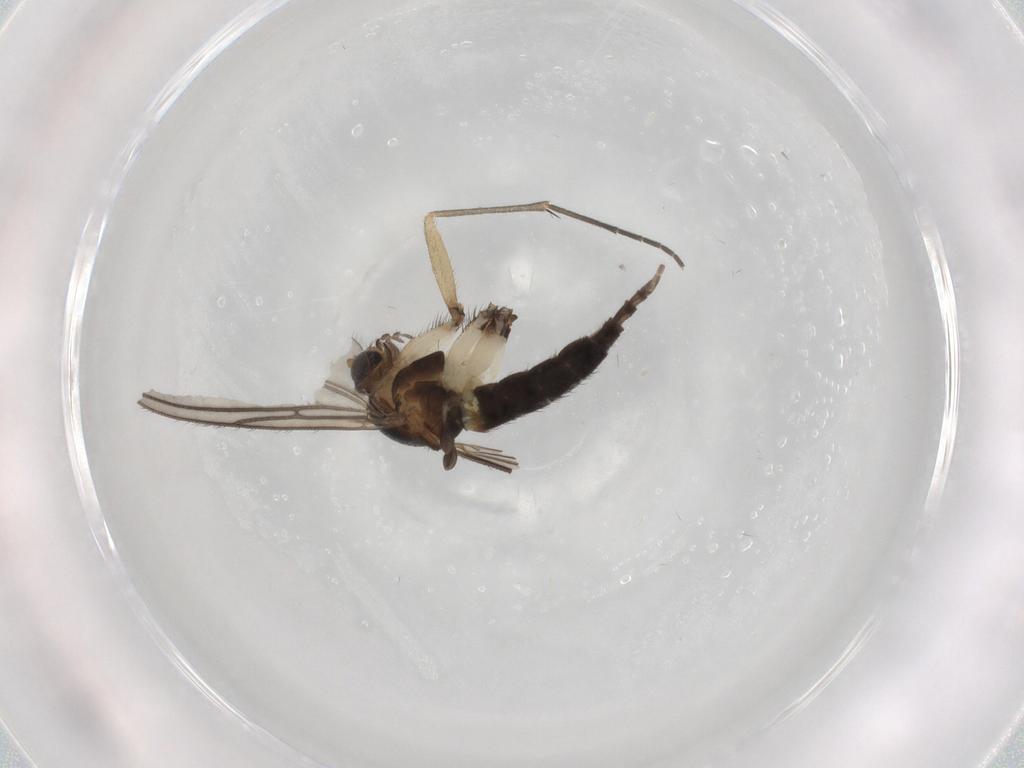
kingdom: Animalia
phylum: Arthropoda
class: Insecta
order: Diptera
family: Sciaridae
